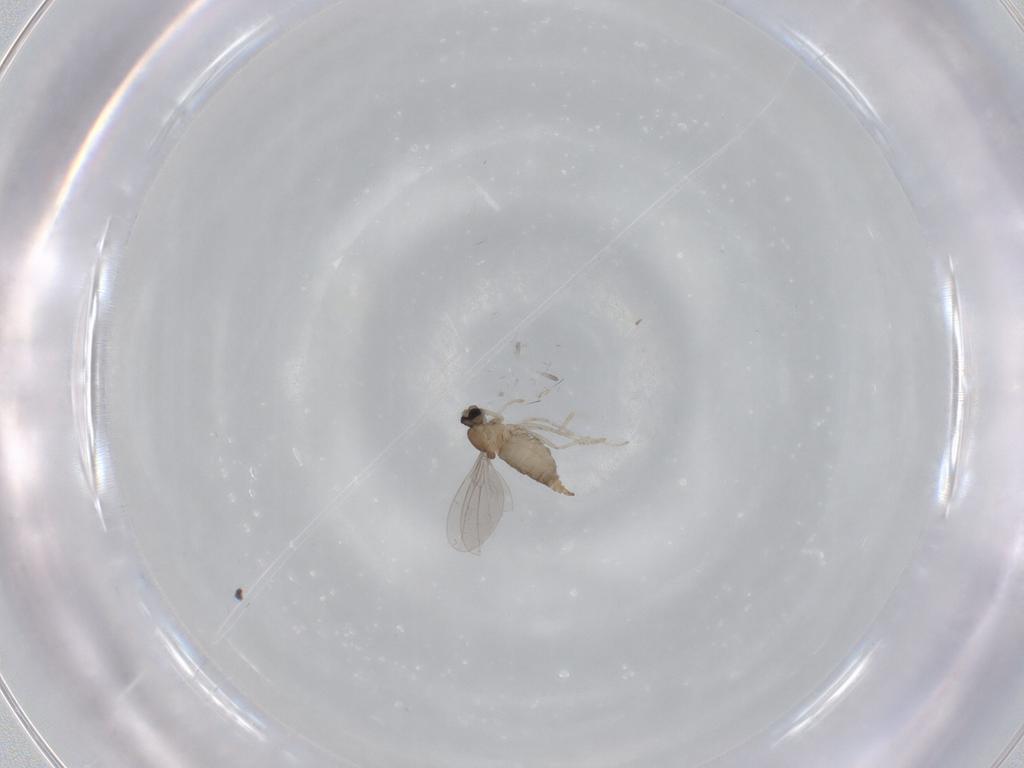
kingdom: Animalia
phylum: Arthropoda
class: Insecta
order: Diptera
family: Cecidomyiidae
